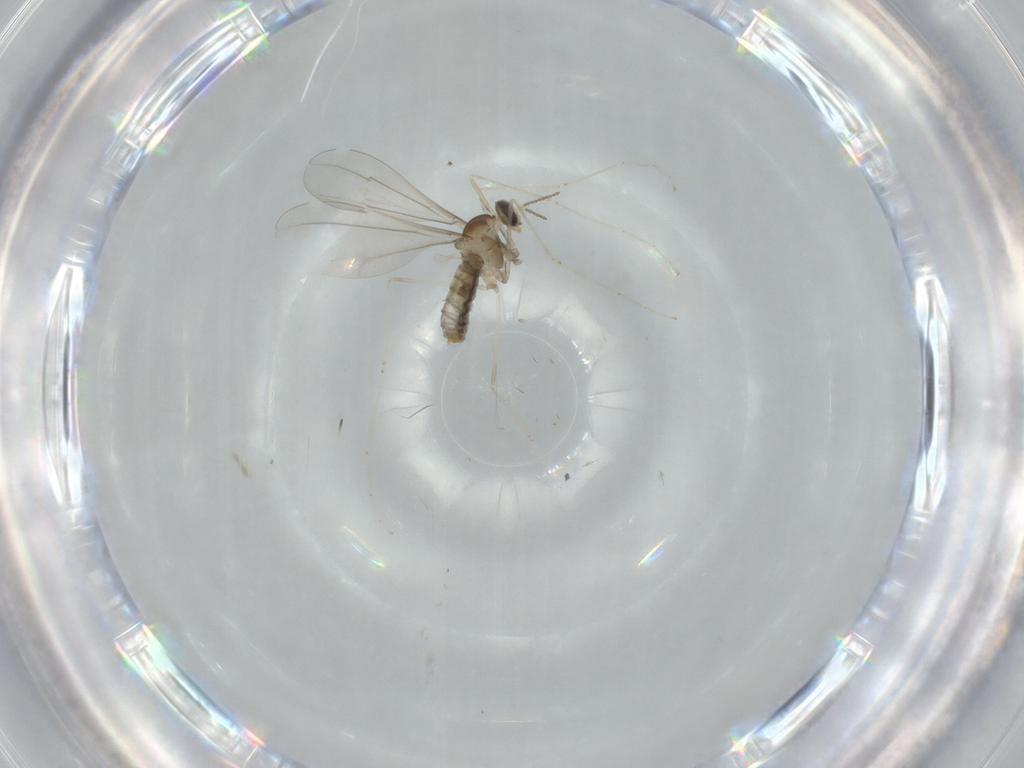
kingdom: Animalia
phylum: Arthropoda
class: Insecta
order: Diptera
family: Cecidomyiidae
